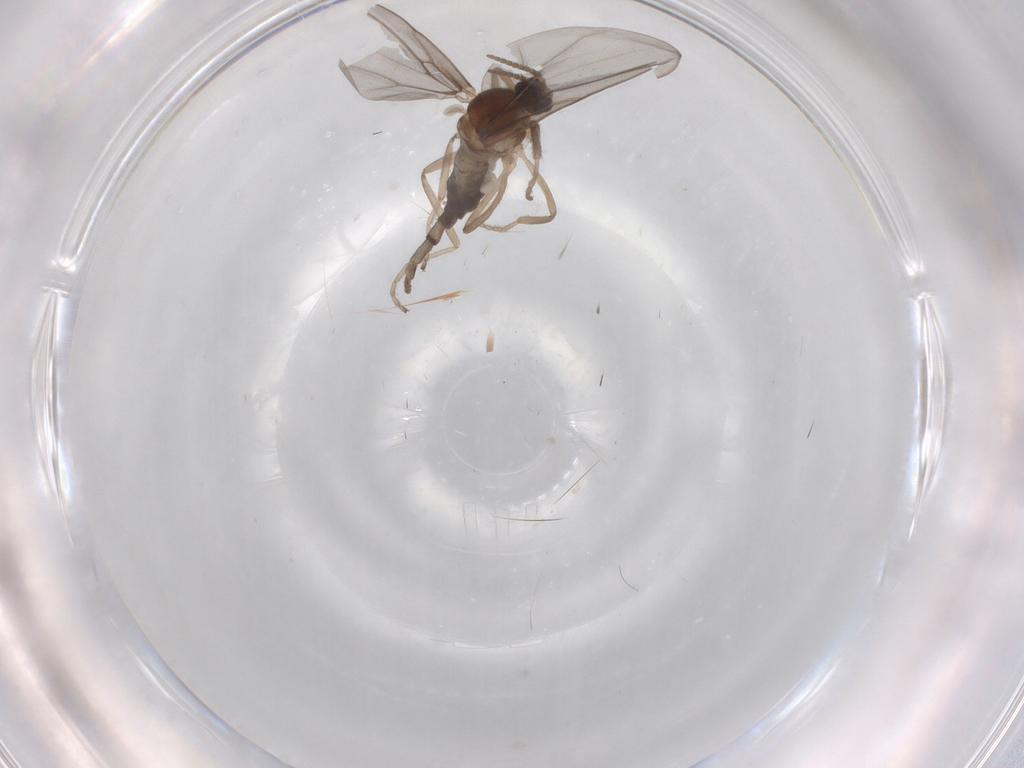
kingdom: Animalia
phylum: Arthropoda
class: Insecta
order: Diptera
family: Cecidomyiidae
